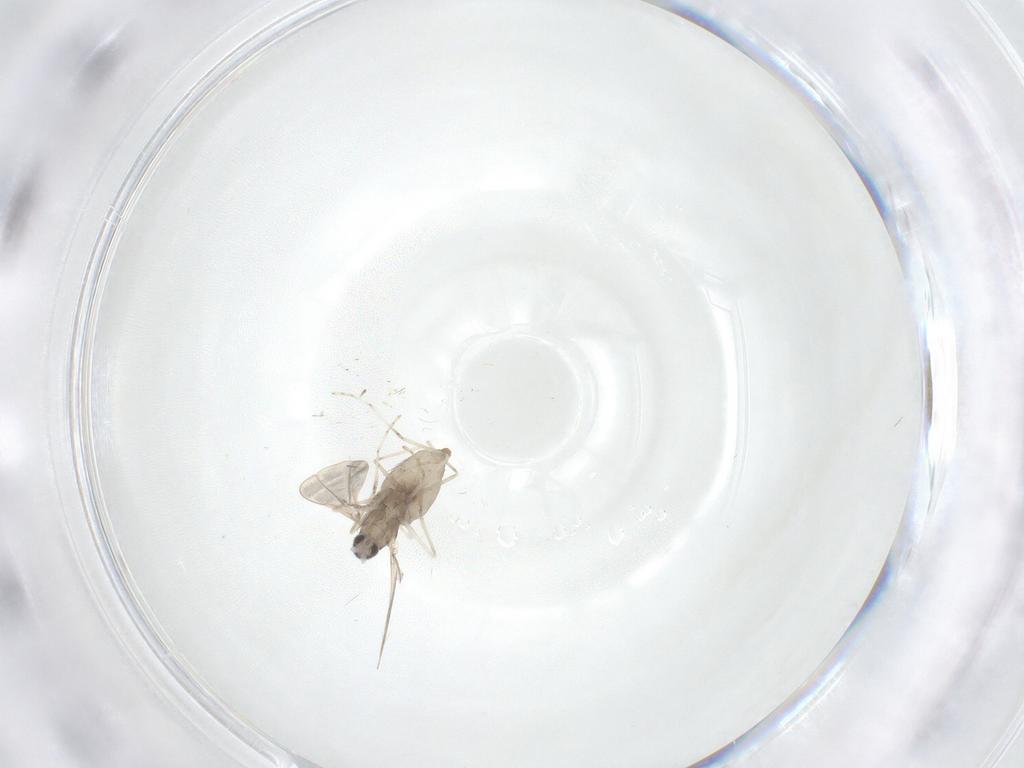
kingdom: Animalia
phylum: Arthropoda
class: Insecta
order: Diptera
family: Cecidomyiidae
